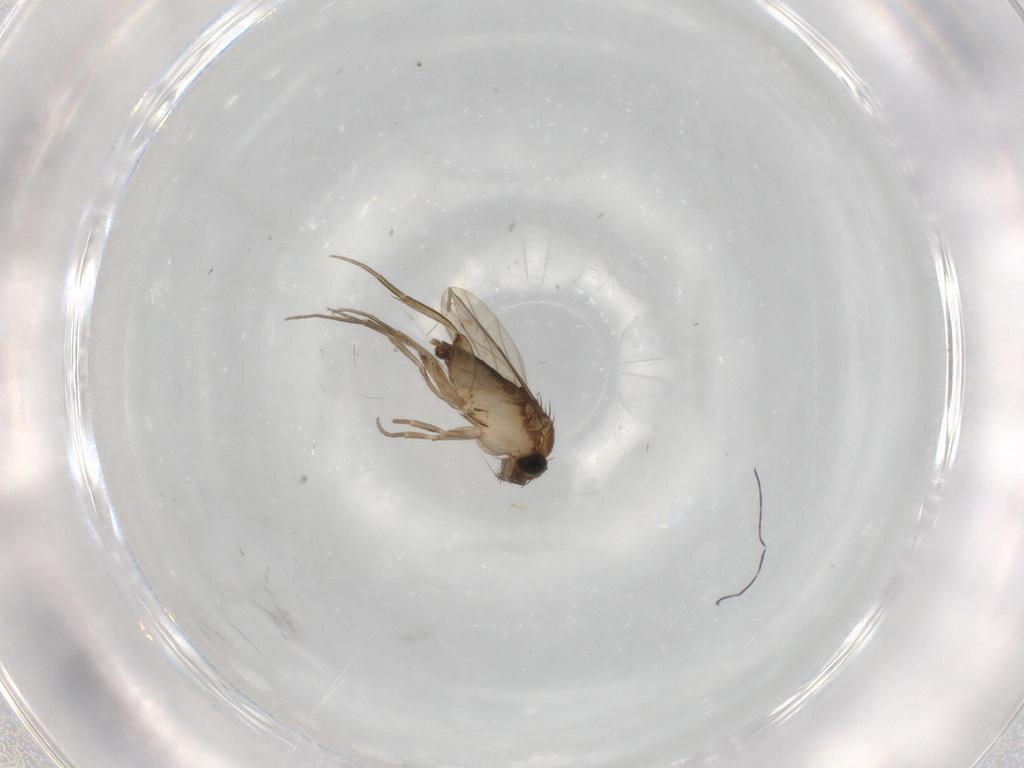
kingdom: Animalia
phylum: Arthropoda
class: Insecta
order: Diptera
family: Phoridae
